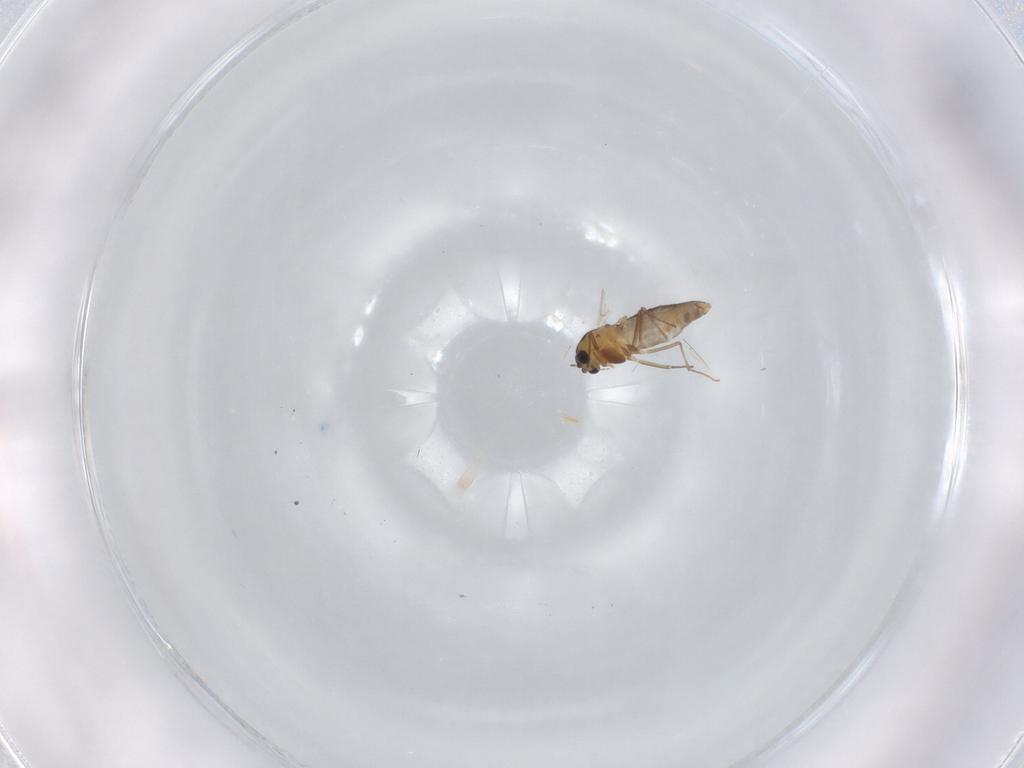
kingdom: Animalia
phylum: Arthropoda
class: Insecta
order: Diptera
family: Chironomidae
